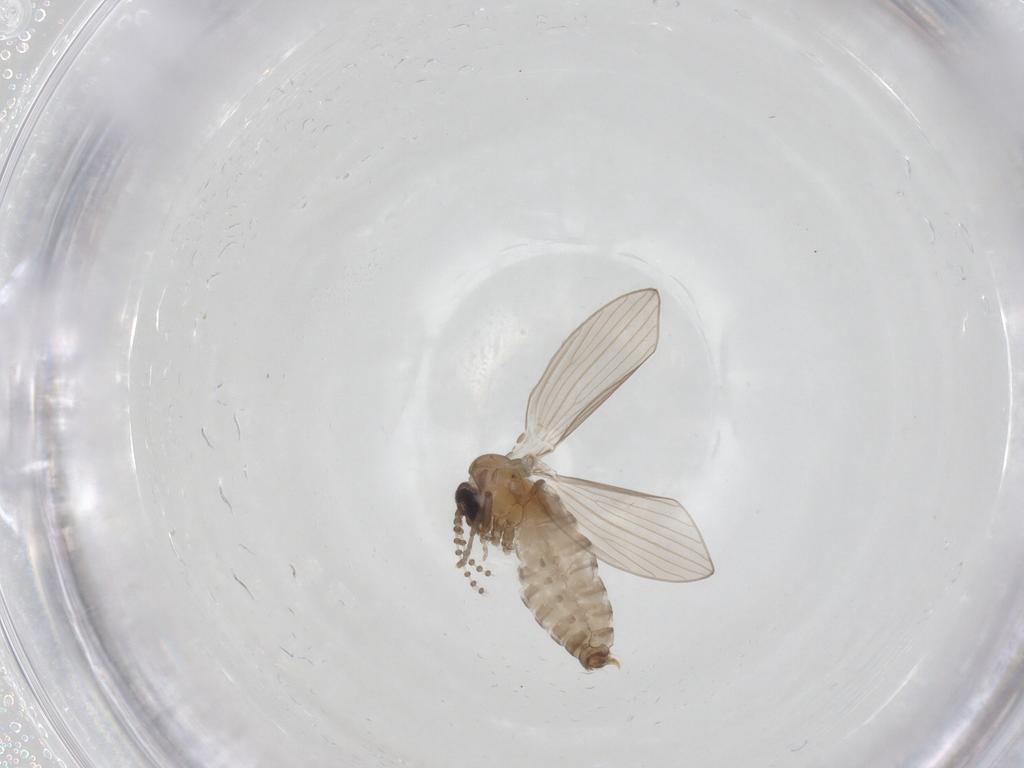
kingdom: Animalia
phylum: Arthropoda
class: Insecta
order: Diptera
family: Psychodidae
